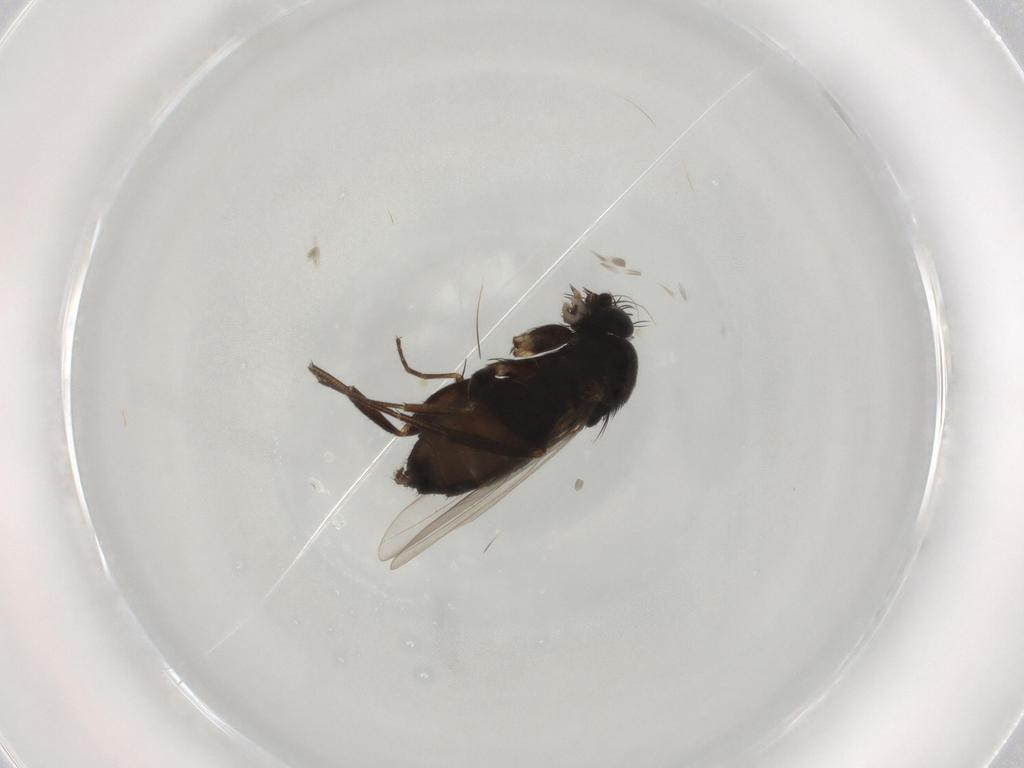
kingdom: Animalia
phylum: Arthropoda
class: Insecta
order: Diptera
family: Phoridae
